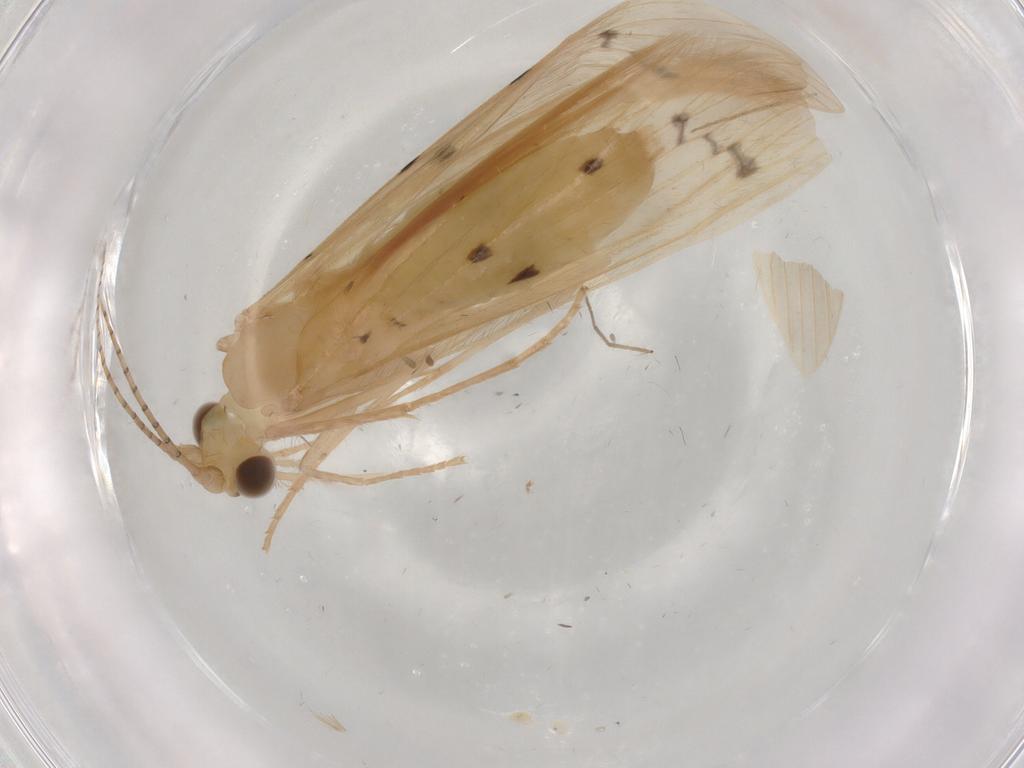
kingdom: Animalia
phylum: Arthropoda
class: Insecta
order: Trichoptera
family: Leptoceridae
